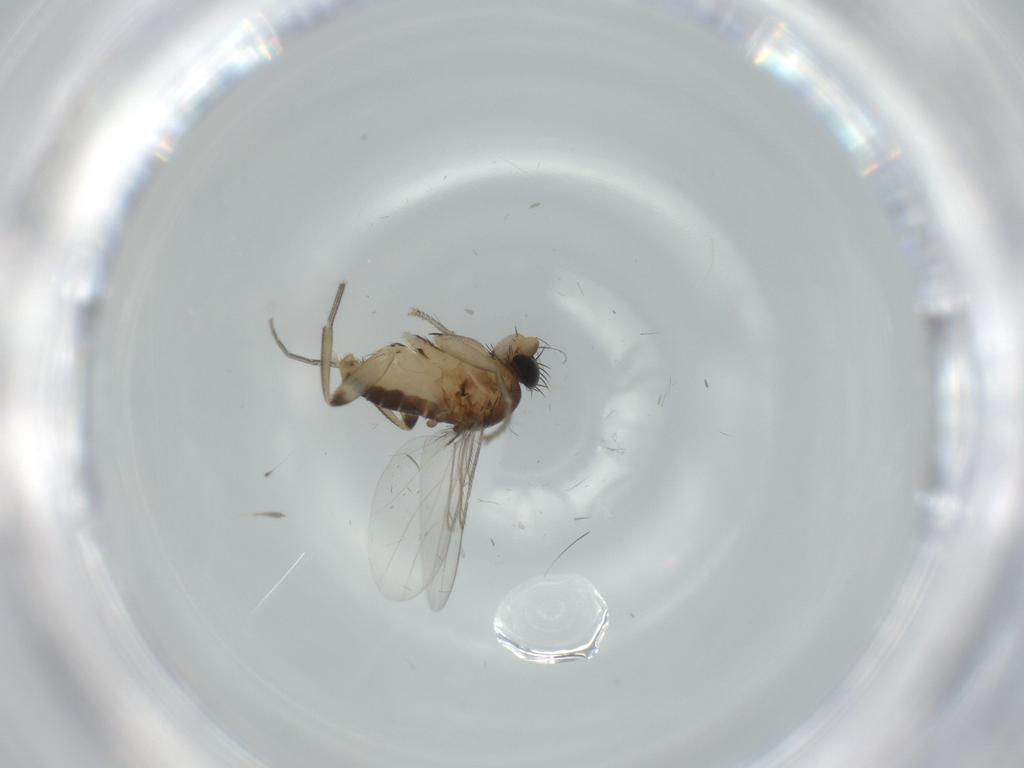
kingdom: Animalia
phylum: Arthropoda
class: Insecta
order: Diptera
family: Phoridae
